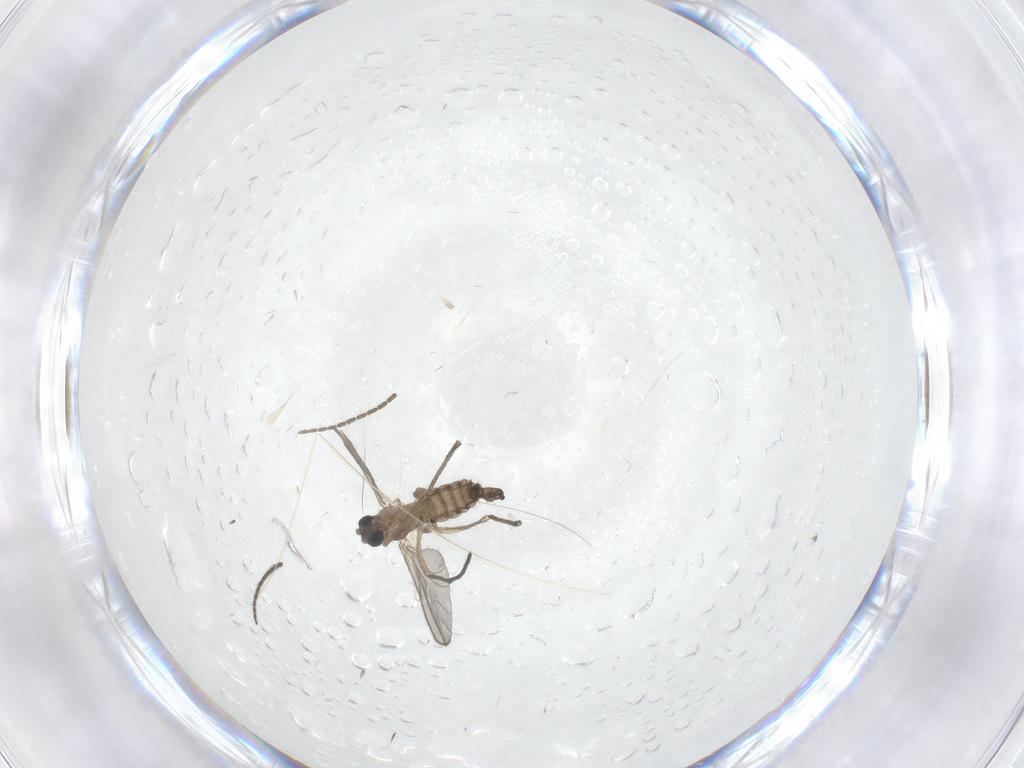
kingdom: Animalia
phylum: Arthropoda
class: Insecta
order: Diptera
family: Sciaridae
